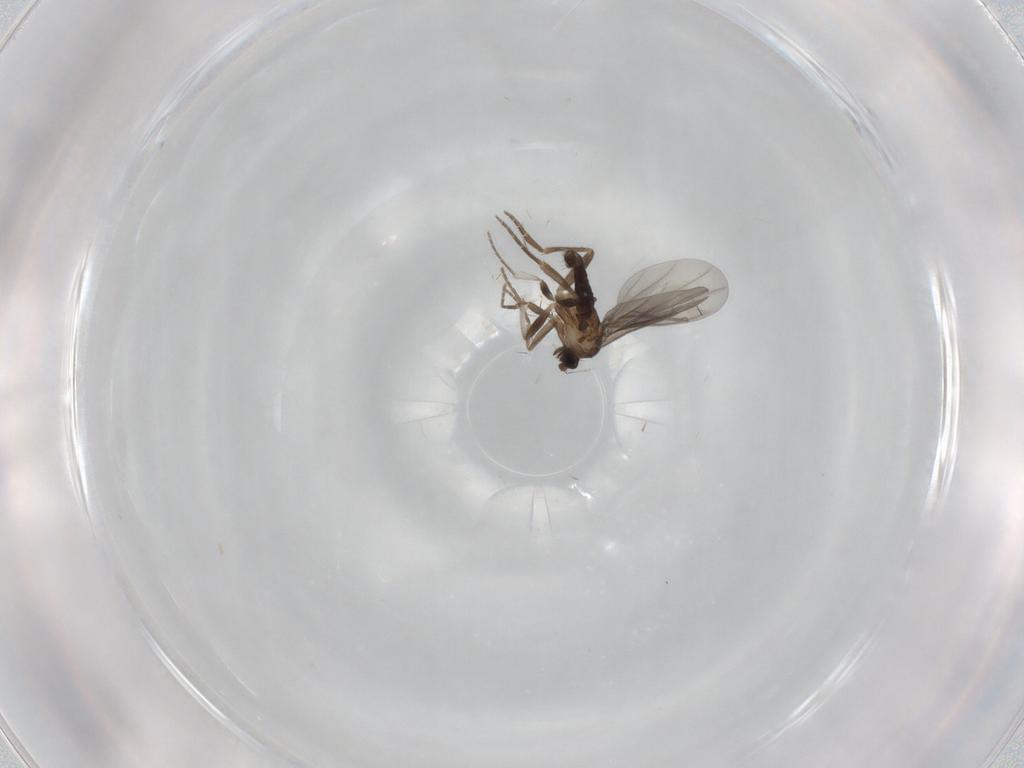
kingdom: Animalia
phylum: Arthropoda
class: Insecta
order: Diptera
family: Phoridae
